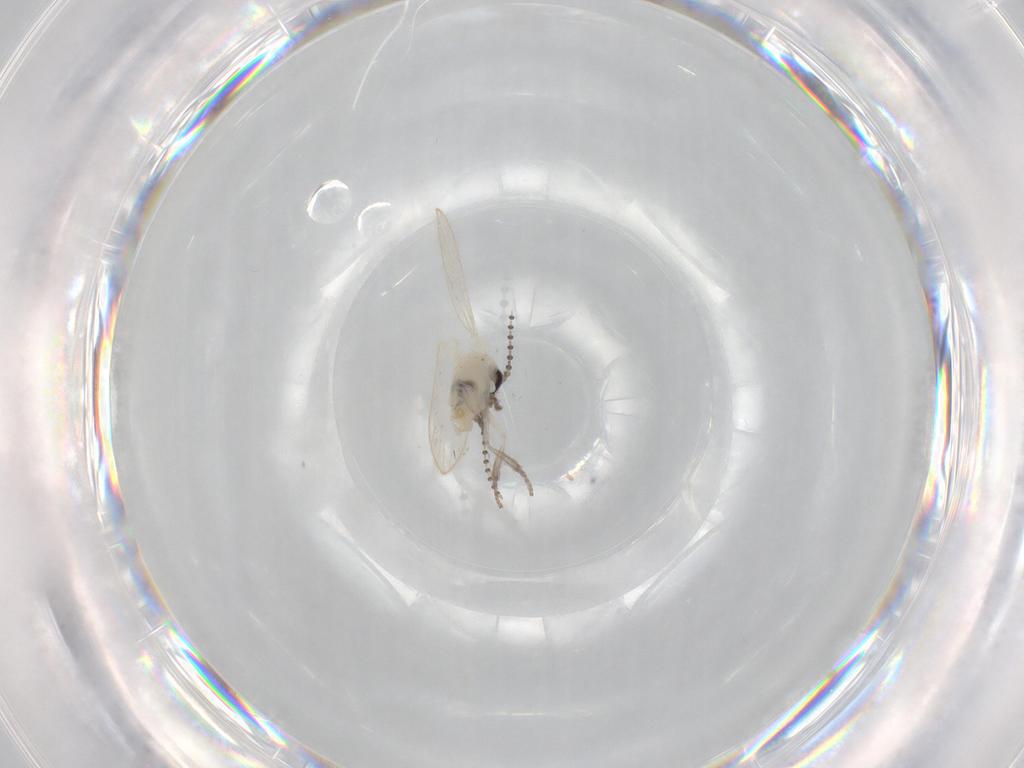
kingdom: Animalia
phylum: Arthropoda
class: Insecta
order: Diptera
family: Psychodidae
